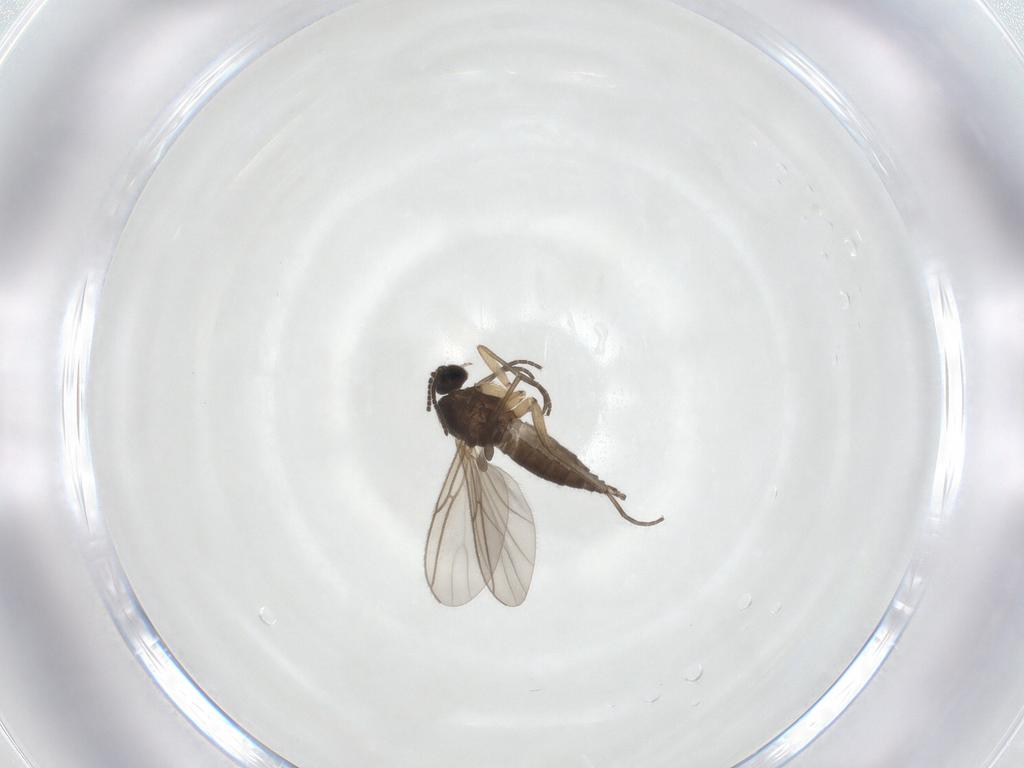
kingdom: Animalia
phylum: Arthropoda
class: Insecta
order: Diptera
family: Sciaridae
